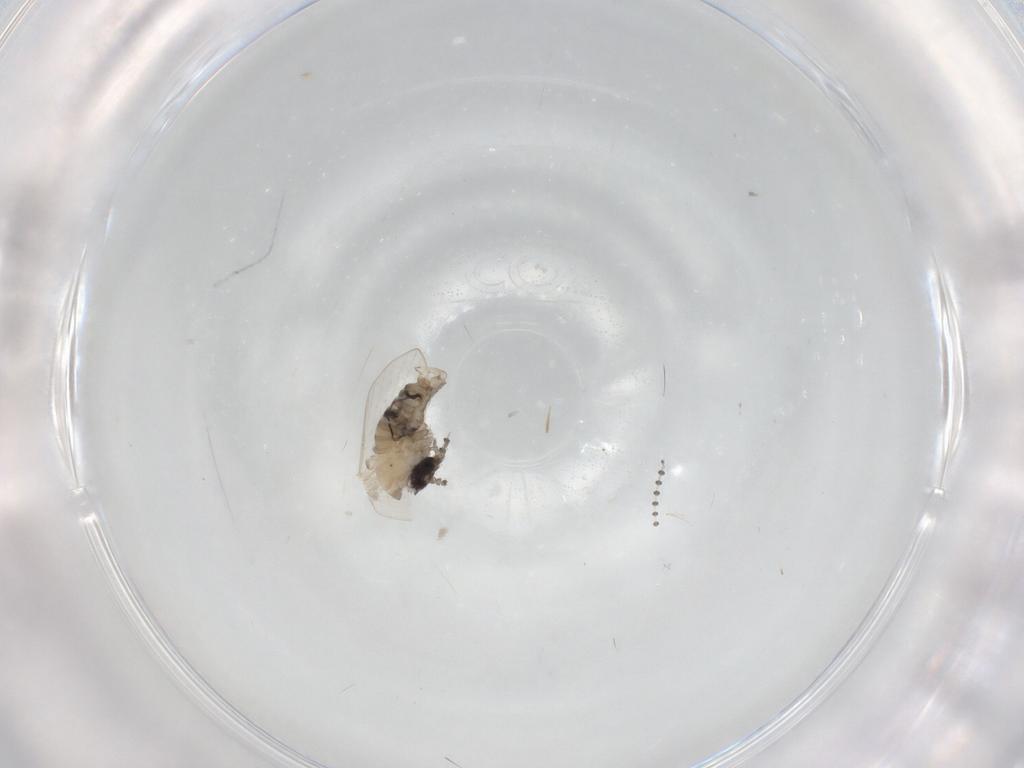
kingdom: Animalia
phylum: Arthropoda
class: Insecta
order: Diptera
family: Psychodidae
